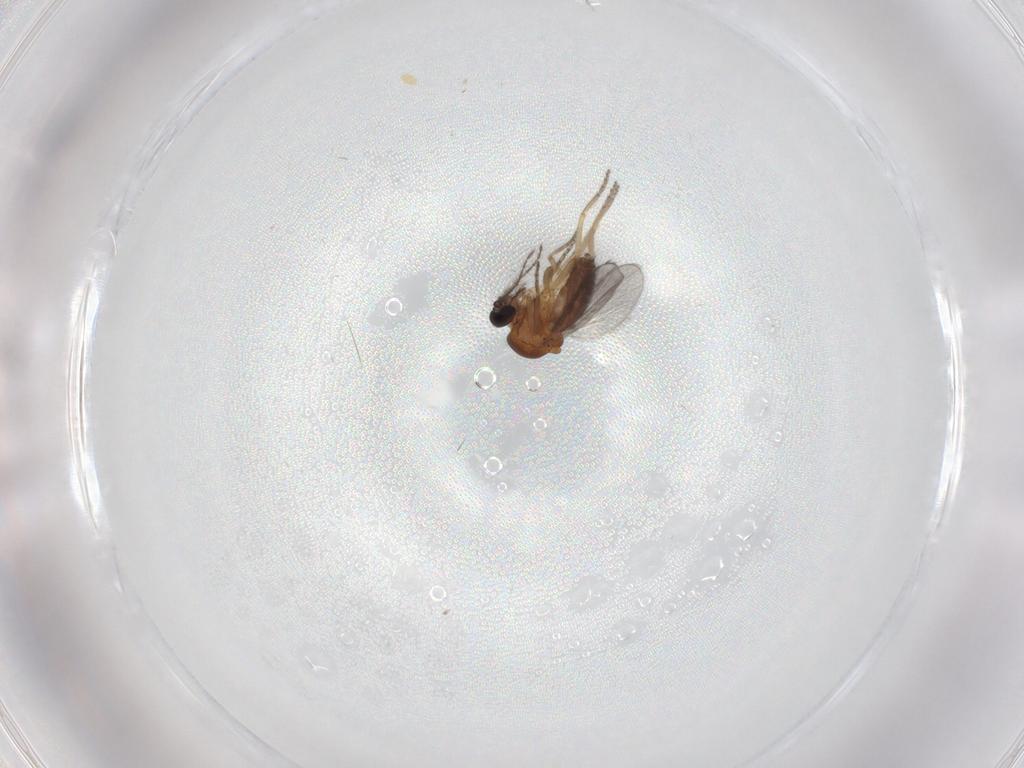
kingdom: Animalia
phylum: Arthropoda
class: Insecta
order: Diptera
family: Ceratopogonidae
